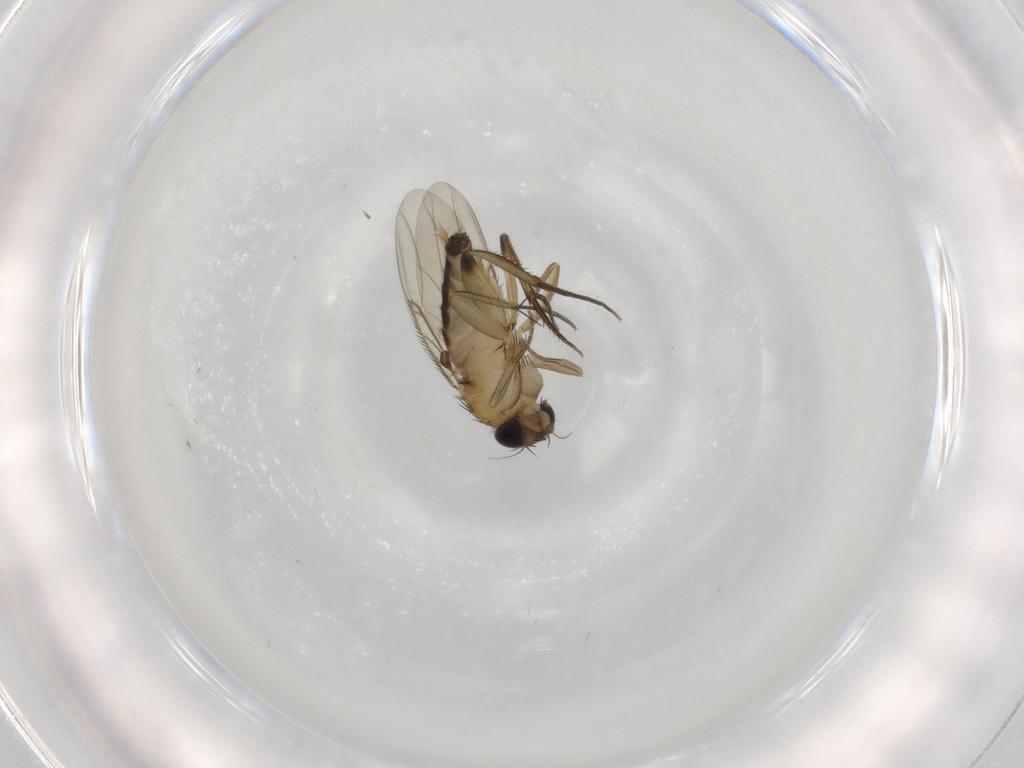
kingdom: Animalia
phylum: Arthropoda
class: Insecta
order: Diptera
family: Phoridae
